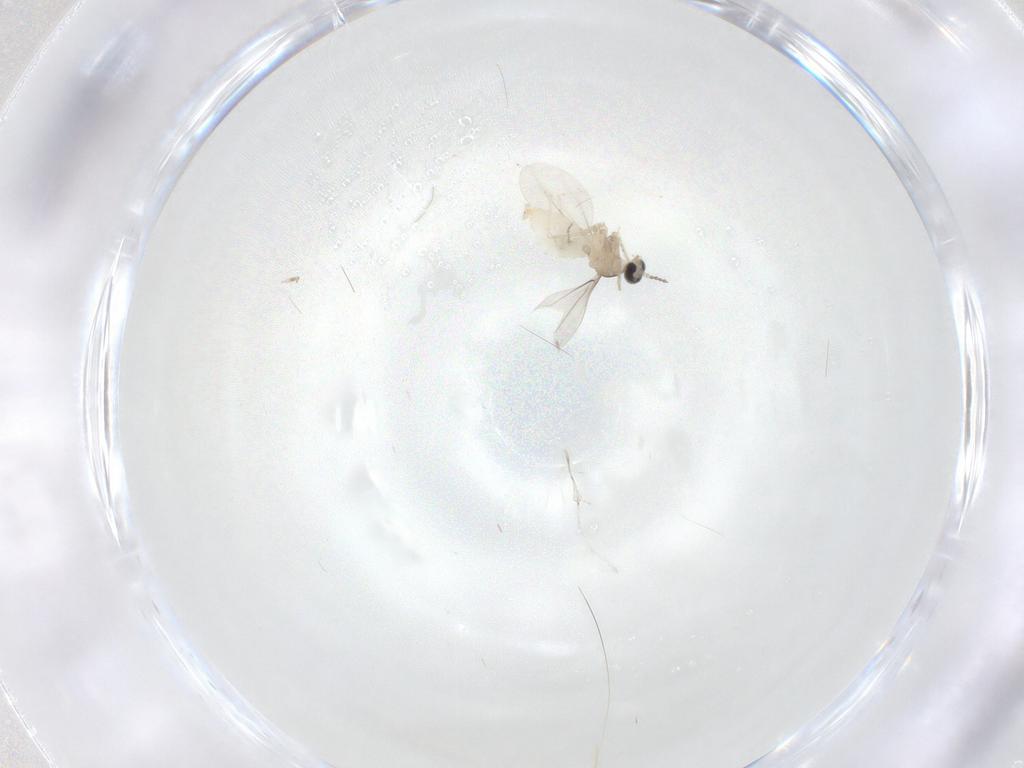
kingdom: Animalia
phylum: Arthropoda
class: Insecta
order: Diptera
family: Cecidomyiidae
